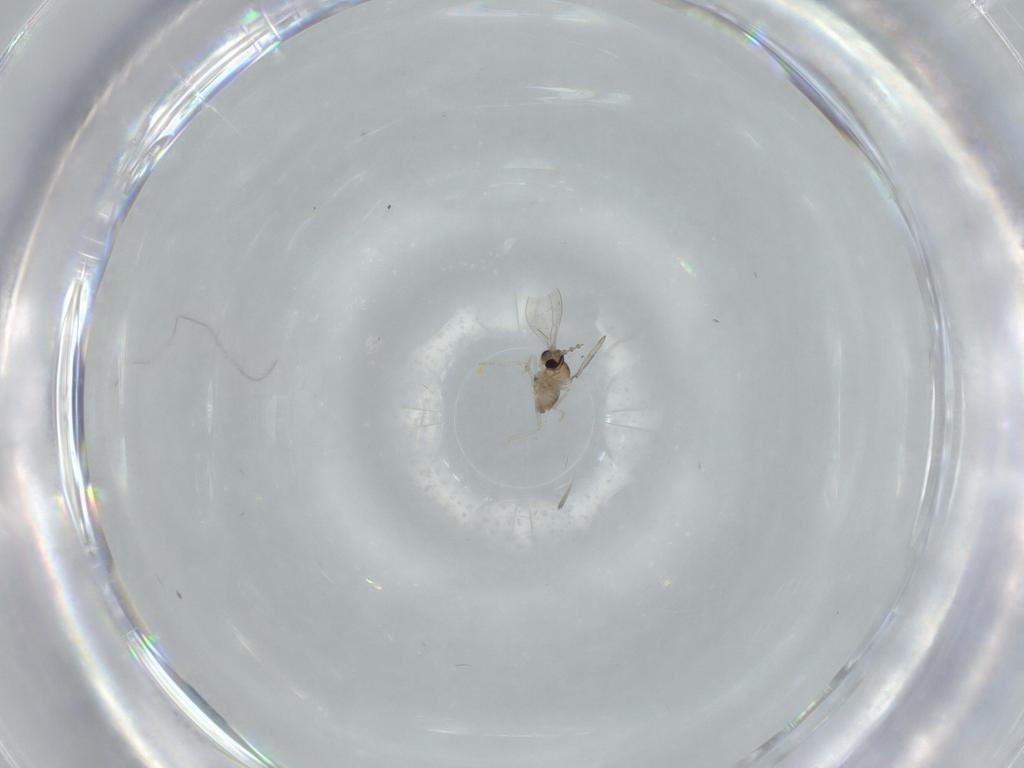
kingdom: Animalia
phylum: Arthropoda
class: Insecta
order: Diptera
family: Cecidomyiidae
